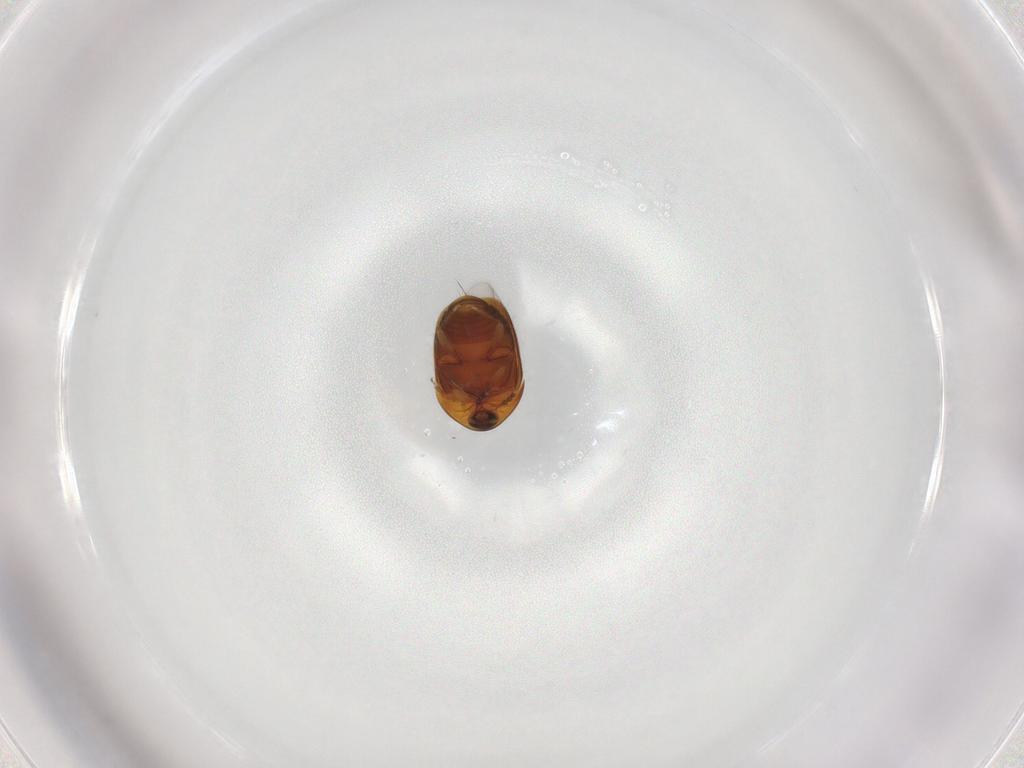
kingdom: Animalia
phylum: Arthropoda
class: Insecta
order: Coleoptera
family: Corylophidae
